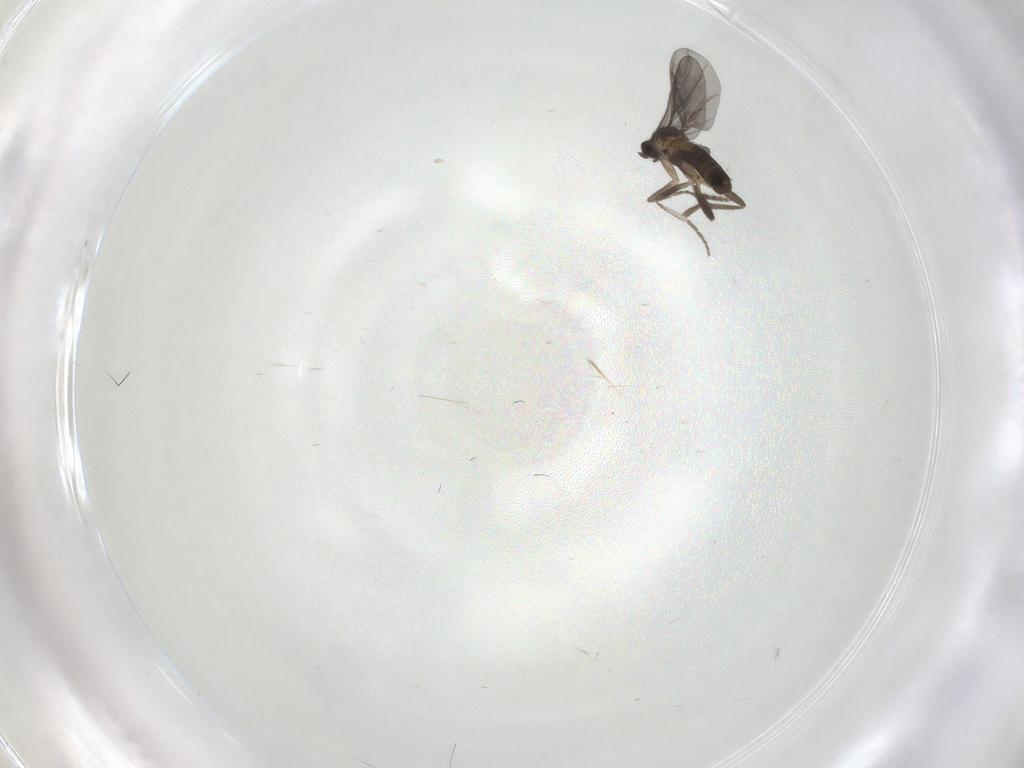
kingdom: Animalia
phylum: Arthropoda
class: Insecta
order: Diptera
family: Phoridae
